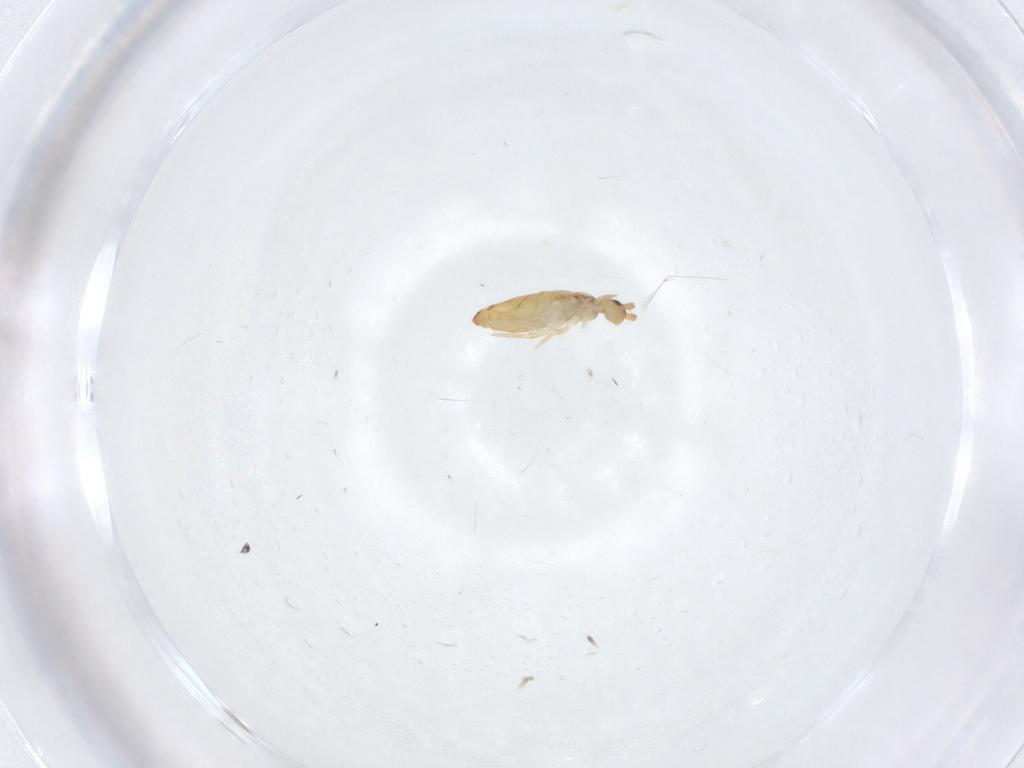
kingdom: Animalia
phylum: Arthropoda
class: Collembola
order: Entomobryomorpha
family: Entomobryidae
